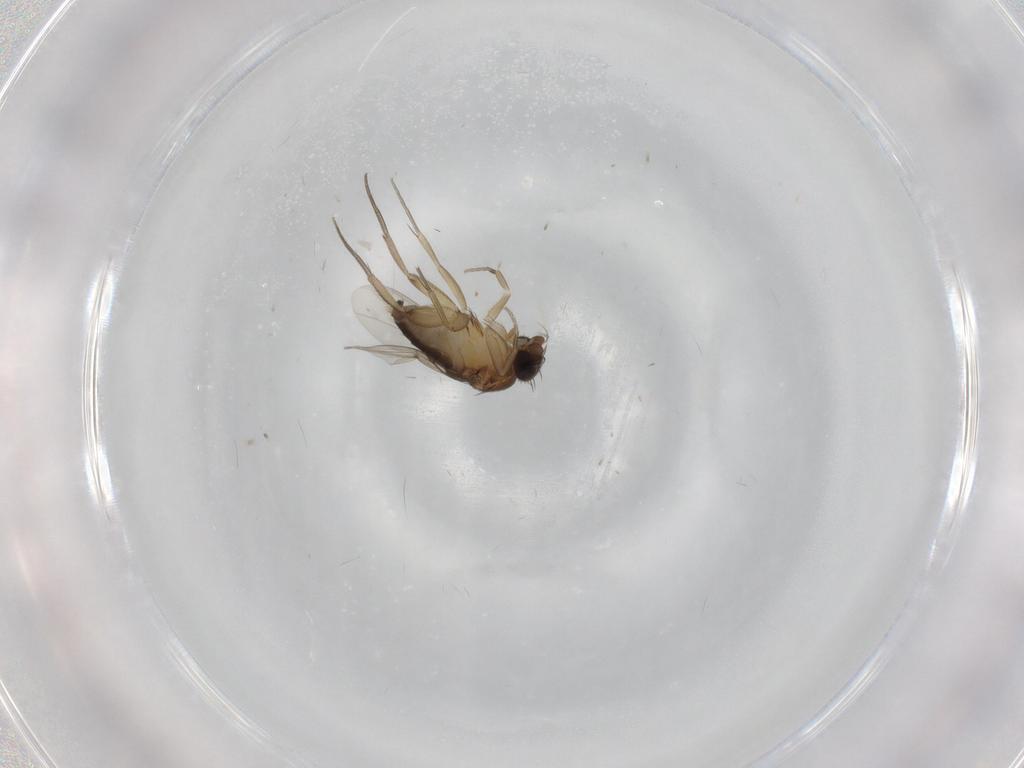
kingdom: Animalia
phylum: Arthropoda
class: Insecta
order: Diptera
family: Phoridae
